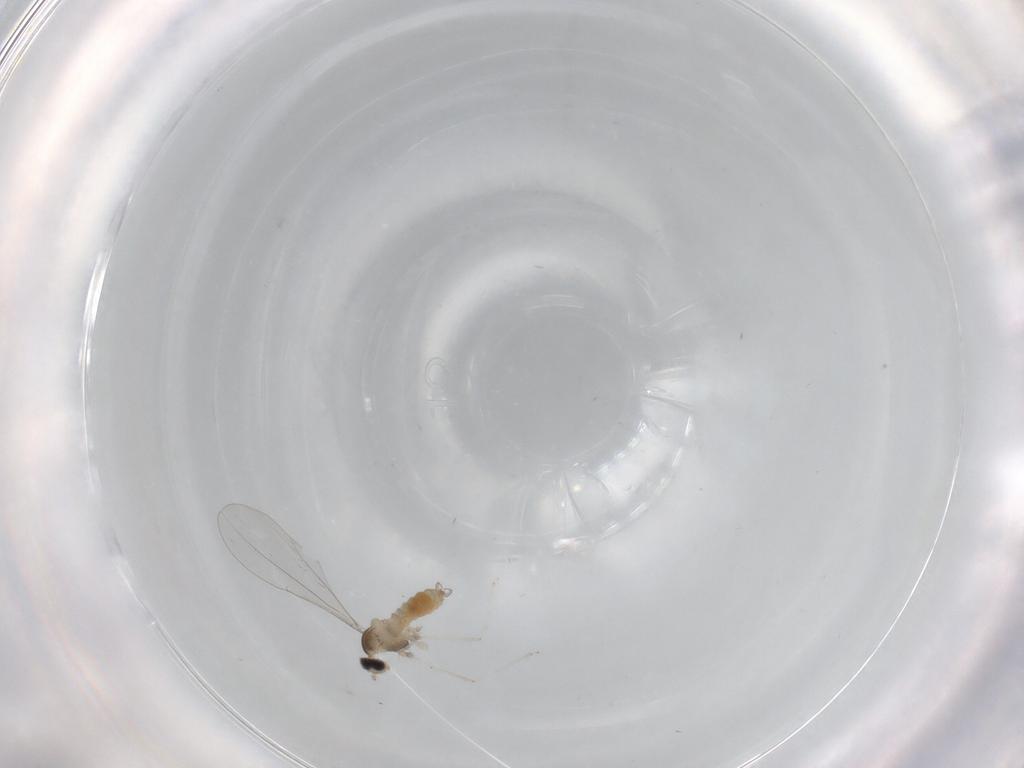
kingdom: Animalia
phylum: Arthropoda
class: Insecta
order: Diptera
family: Cecidomyiidae
